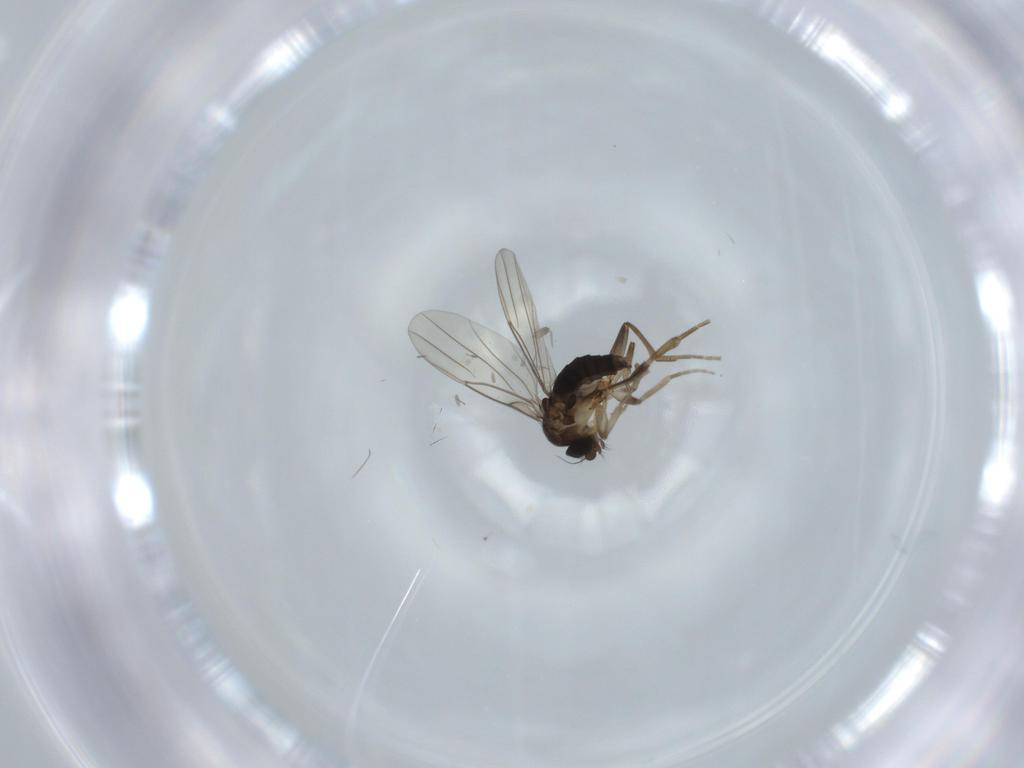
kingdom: Animalia
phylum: Arthropoda
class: Insecta
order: Diptera
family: Phoridae
